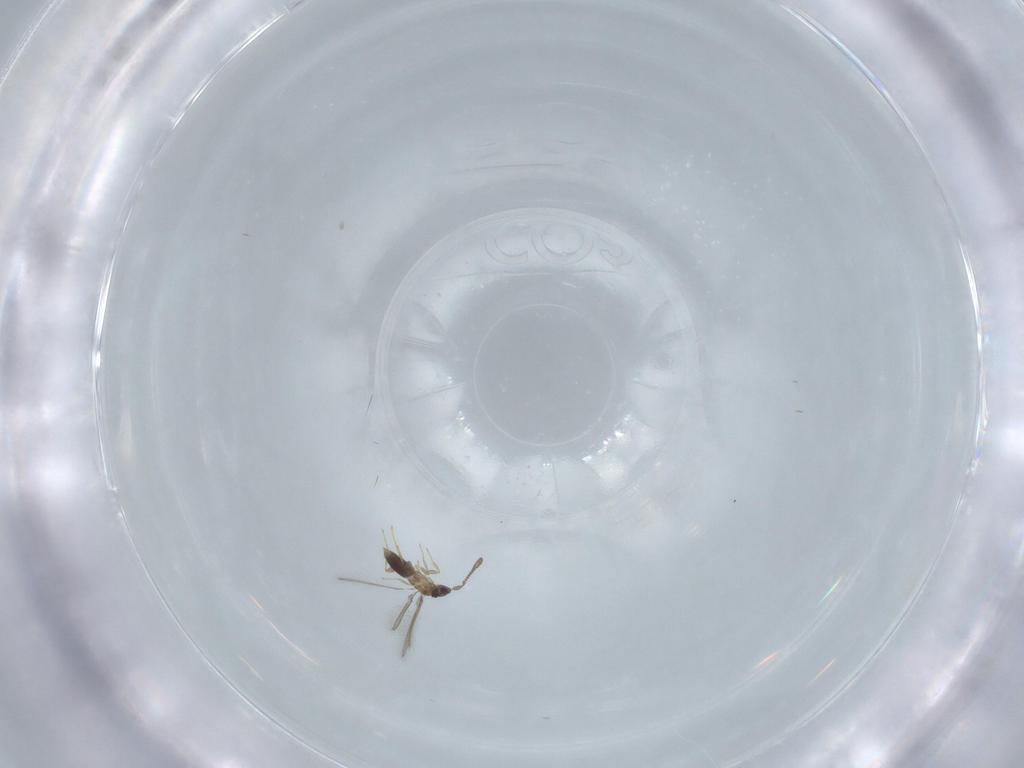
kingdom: Animalia
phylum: Arthropoda
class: Insecta
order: Hymenoptera
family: Mymaridae
